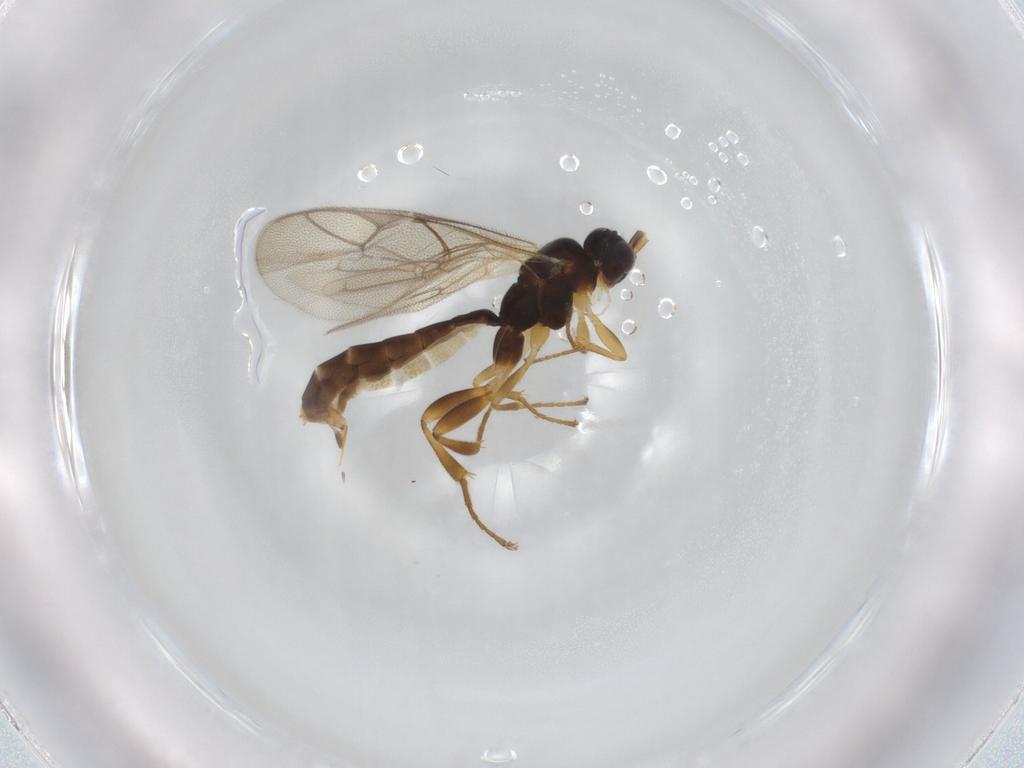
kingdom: Animalia
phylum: Arthropoda
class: Insecta
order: Hymenoptera
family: Ichneumonidae
